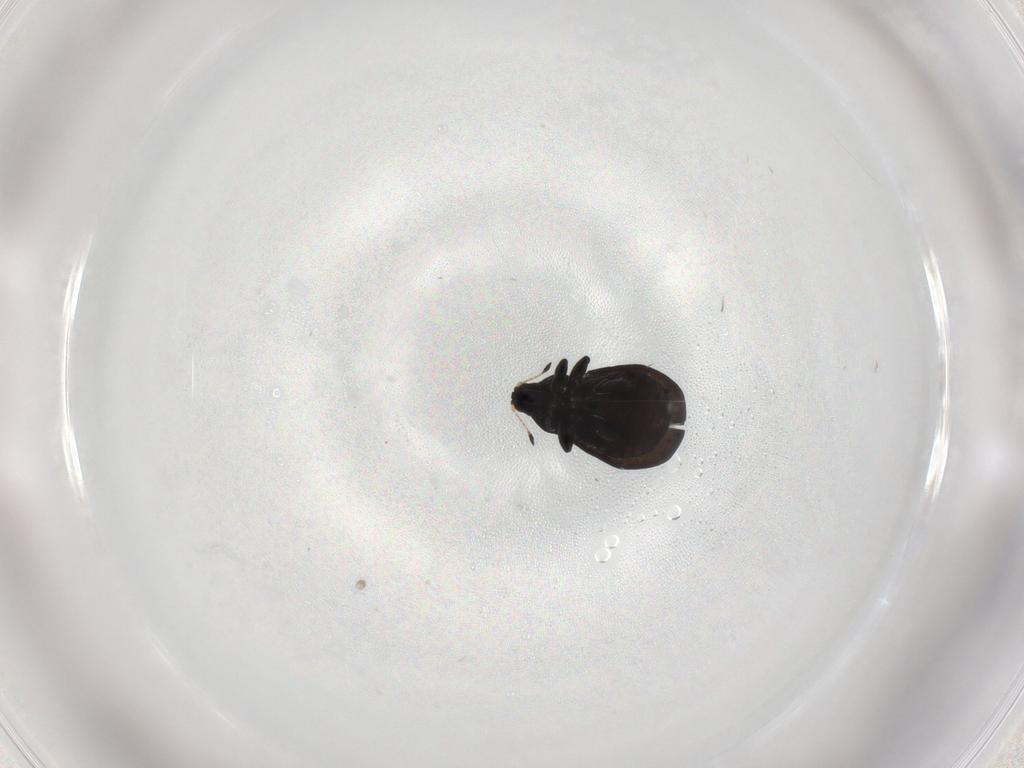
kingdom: Animalia
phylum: Arthropoda
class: Insecta
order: Coleoptera
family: Curculionidae
